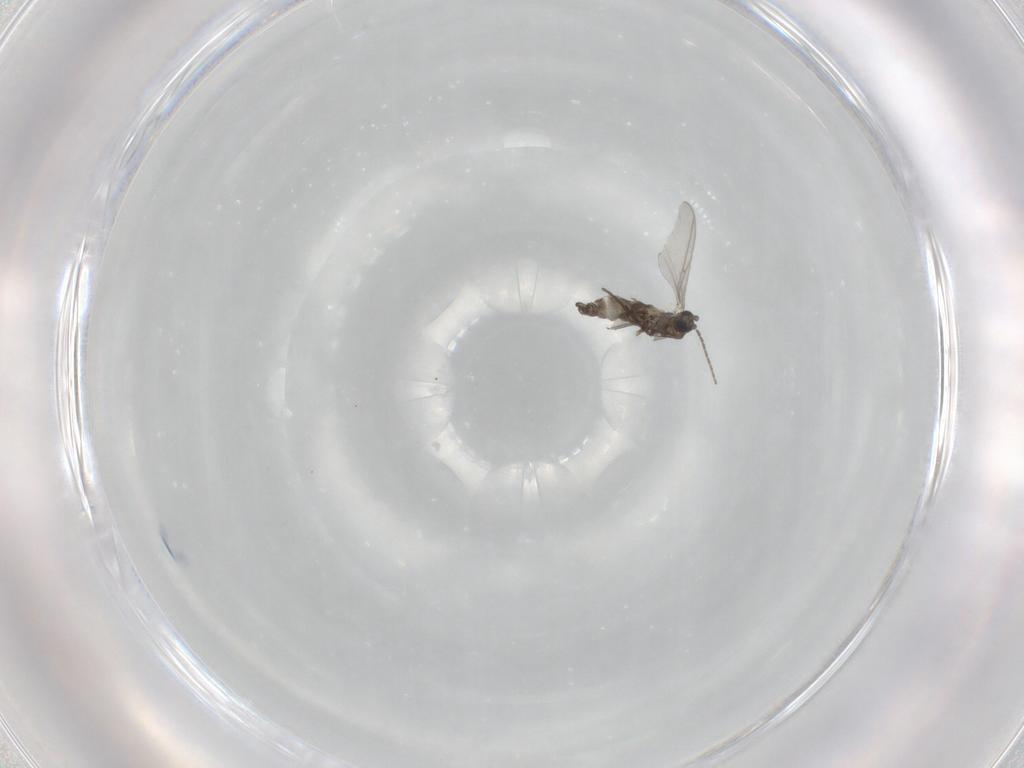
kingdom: Animalia
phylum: Arthropoda
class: Insecta
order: Diptera
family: Sciaridae
